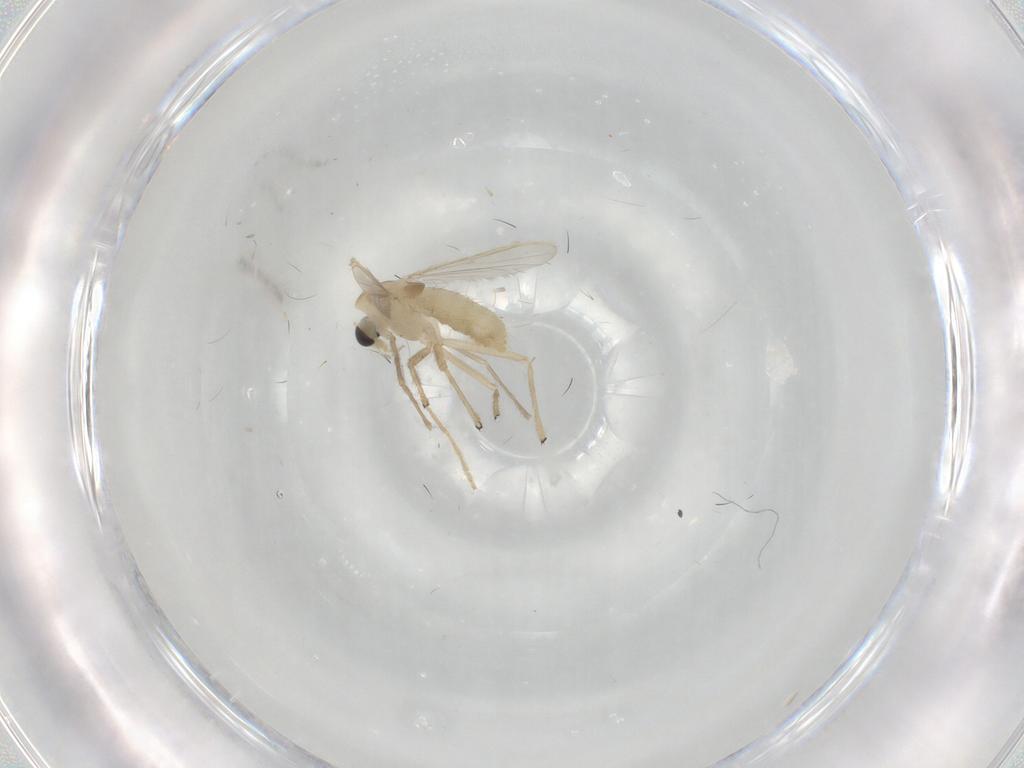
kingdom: Animalia
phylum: Arthropoda
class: Insecta
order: Diptera
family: Chironomidae
